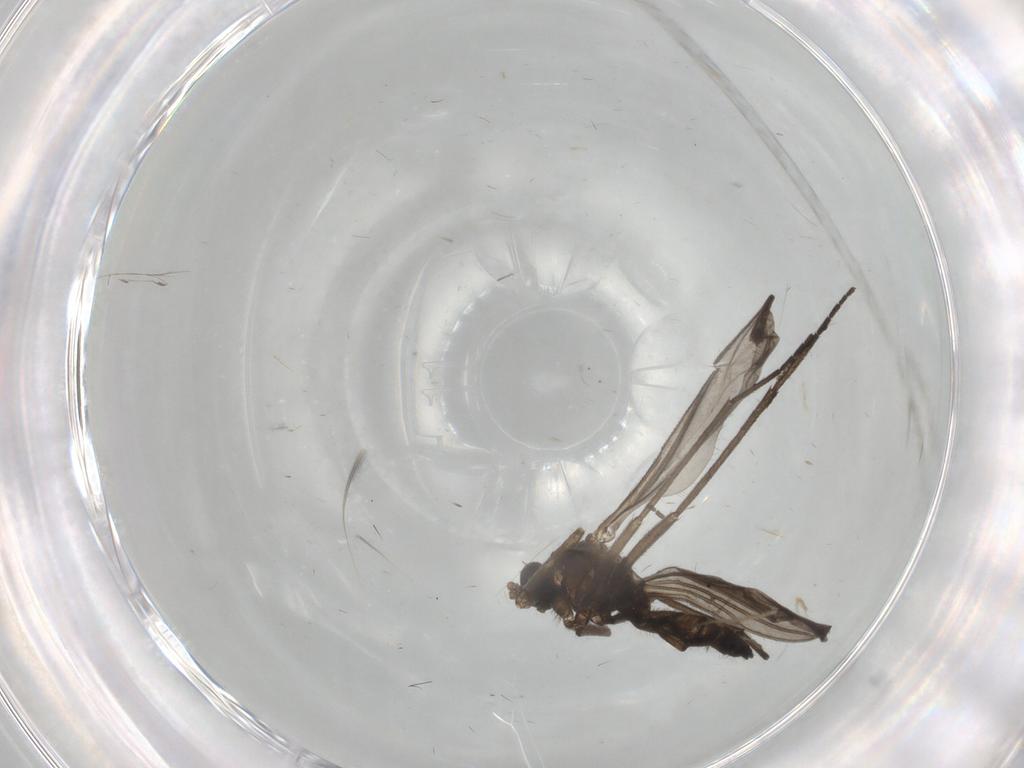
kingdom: Animalia
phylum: Arthropoda
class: Insecta
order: Diptera
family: Sciaridae
